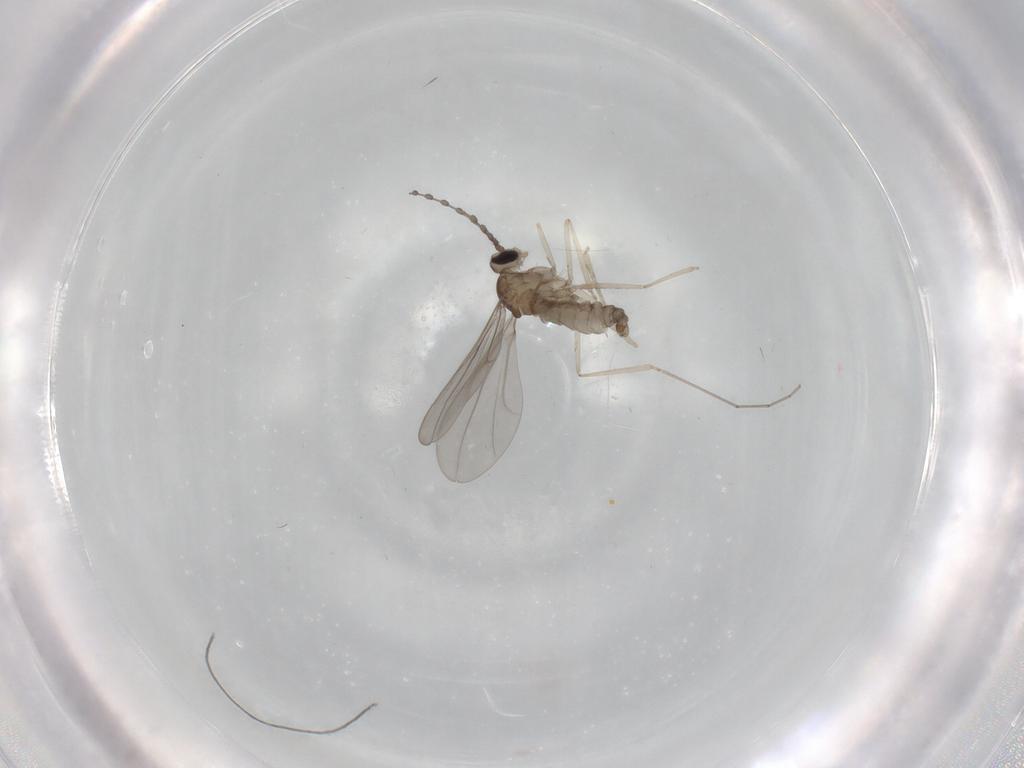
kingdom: Animalia
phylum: Arthropoda
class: Insecta
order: Diptera
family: Cecidomyiidae
